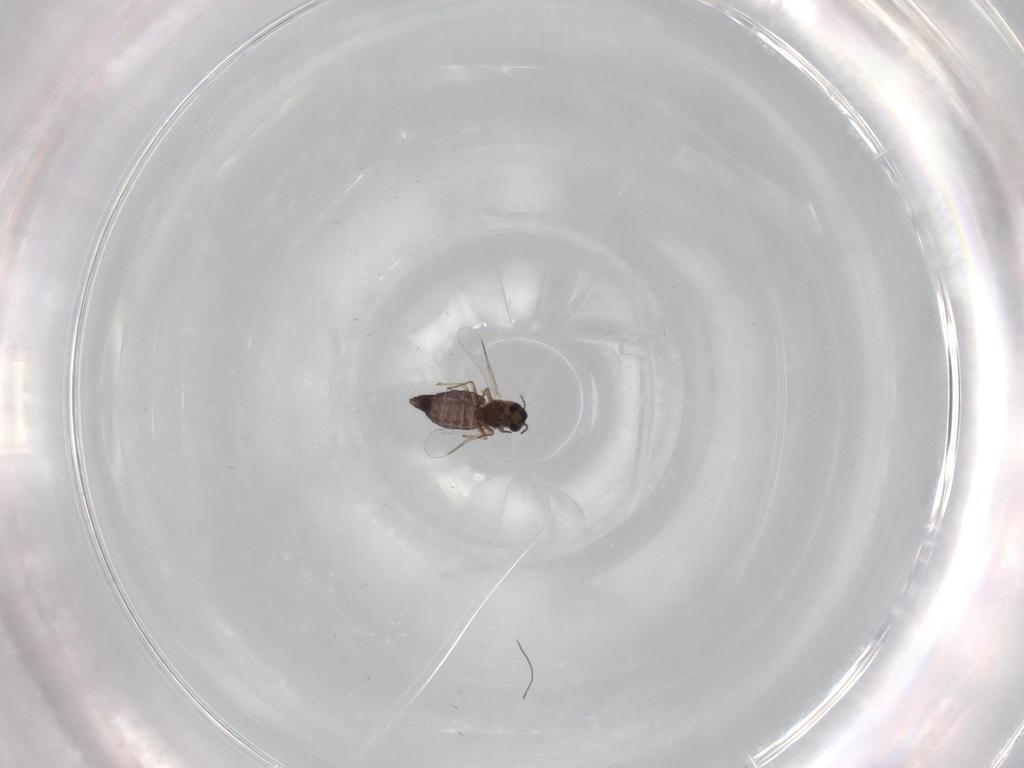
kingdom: Animalia
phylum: Arthropoda
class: Insecta
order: Diptera
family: Chironomidae
